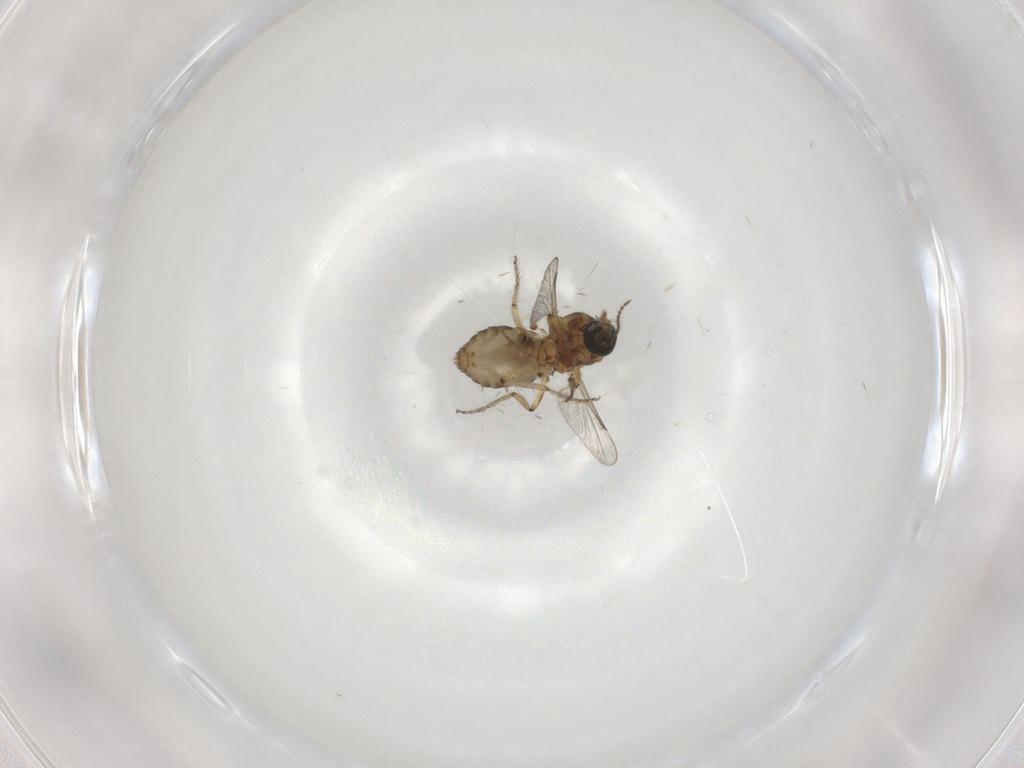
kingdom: Animalia
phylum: Arthropoda
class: Insecta
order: Diptera
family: Ceratopogonidae
